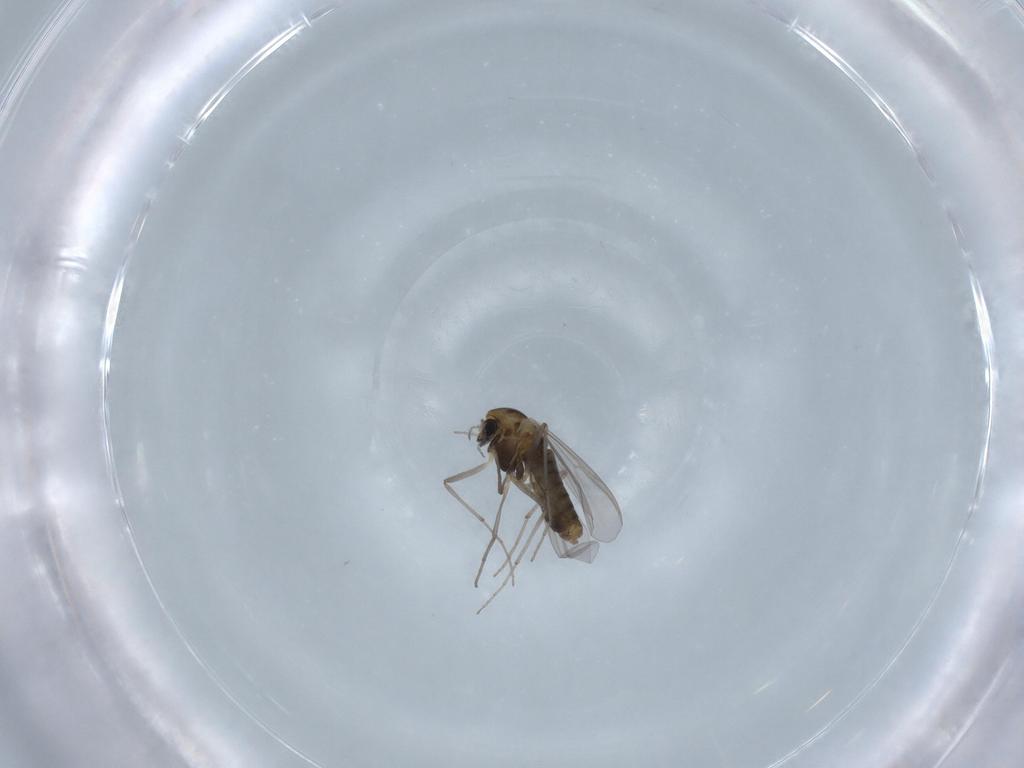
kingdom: Animalia
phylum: Arthropoda
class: Insecta
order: Diptera
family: Chironomidae
